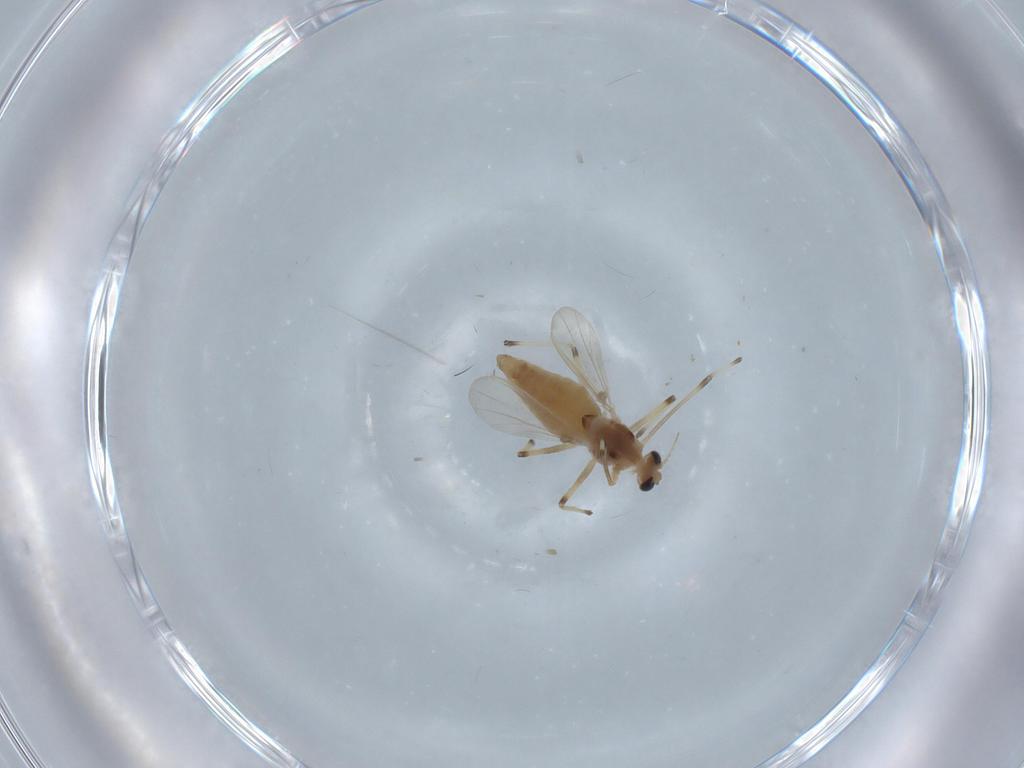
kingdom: Animalia
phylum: Arthropoda
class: Insecta
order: Diptera
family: Chironomidae
